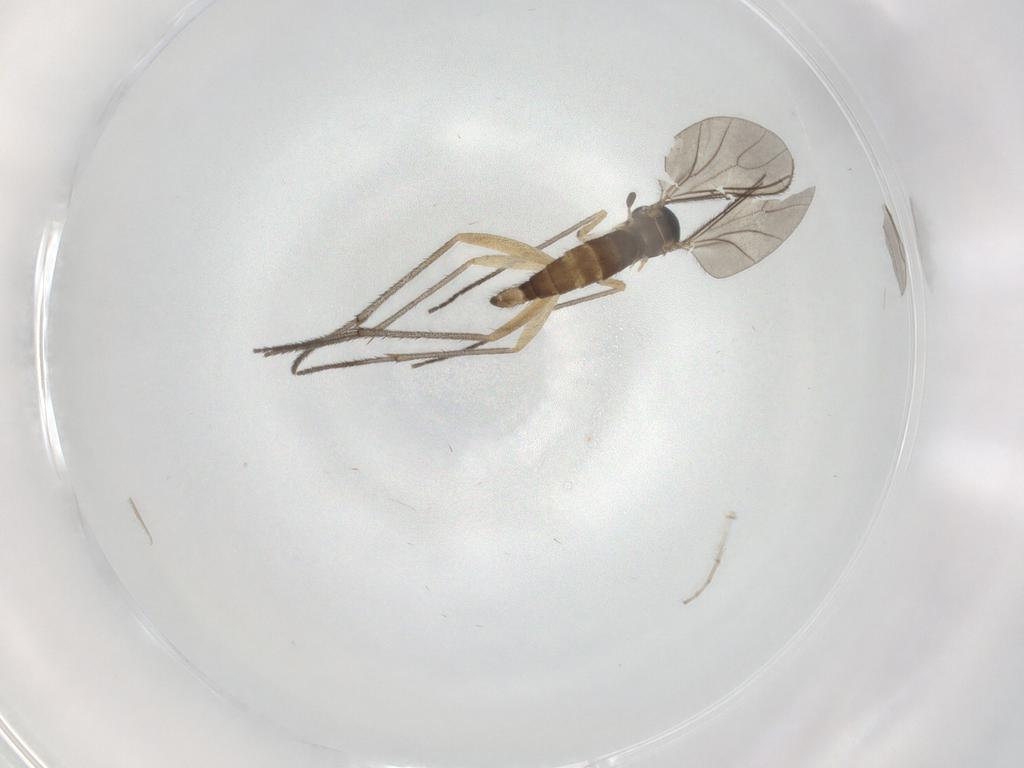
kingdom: Animalia
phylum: Arthropoda
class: Insecta
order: Diptera
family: Sciaridae
